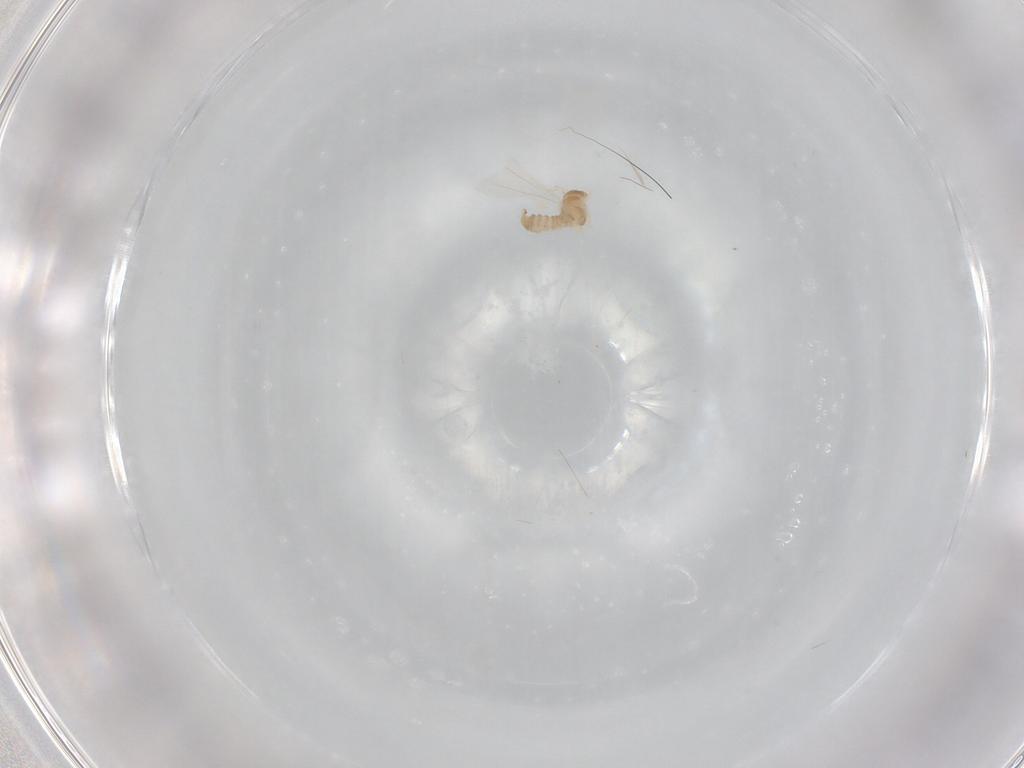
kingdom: Animalia
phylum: Arthropoda
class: Insecta
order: Diptera
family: Cecidomyiidae
